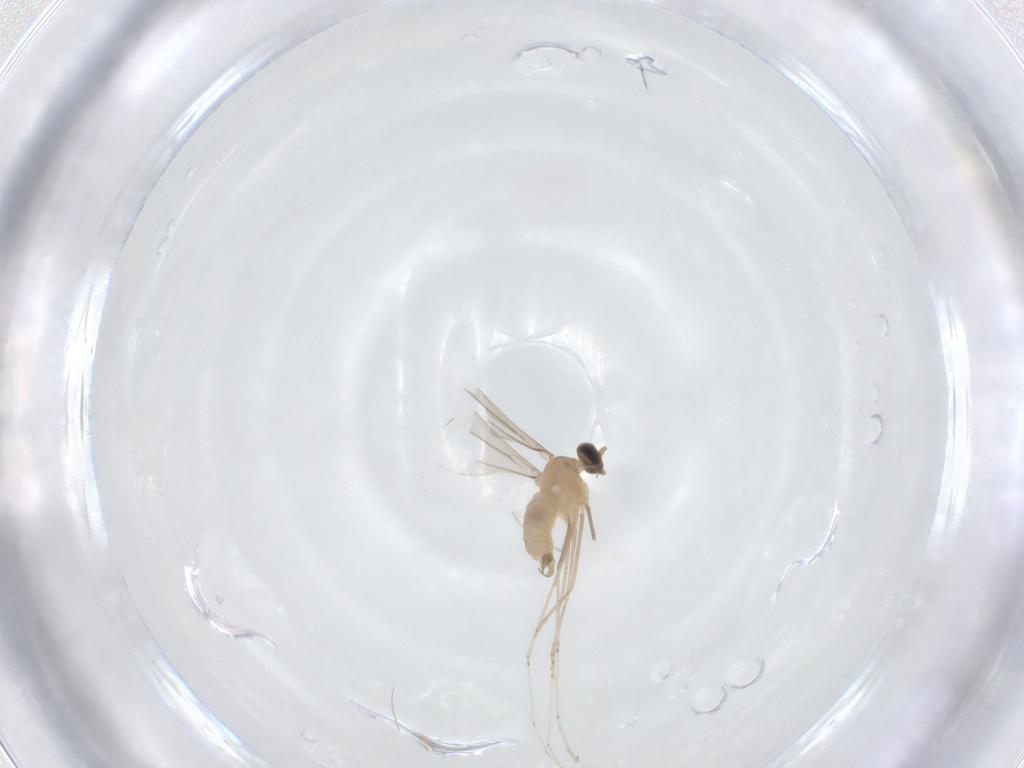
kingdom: Animalia
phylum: Arthropoda
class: Insecta
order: Diptera
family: Cecidomyiidae
